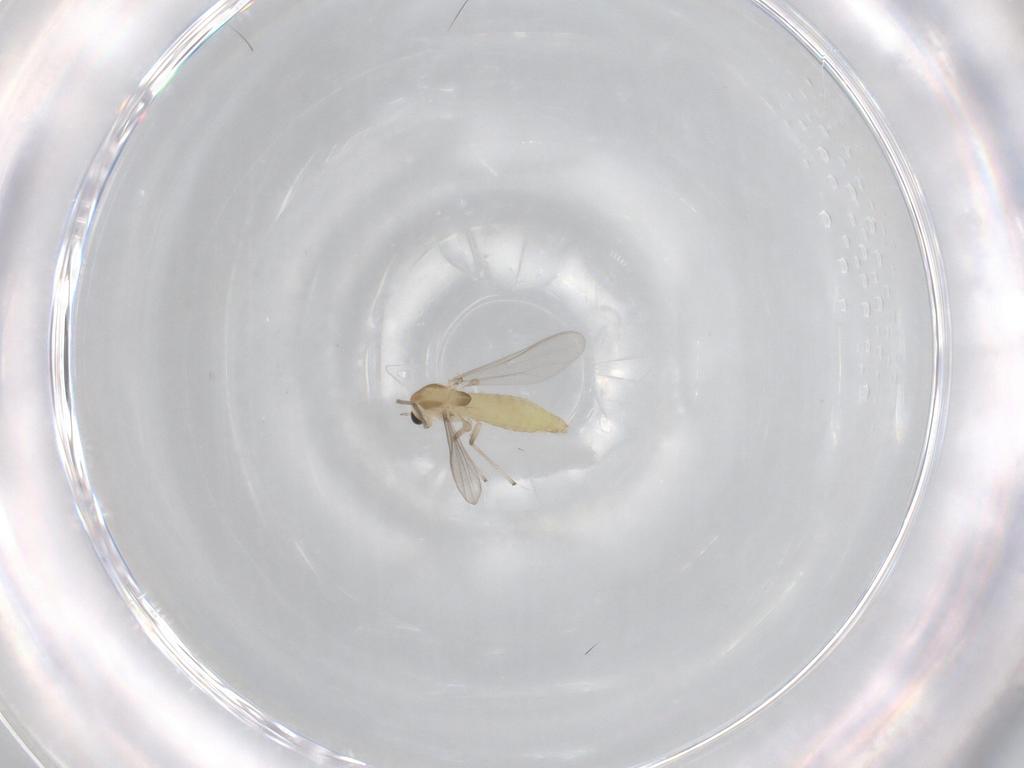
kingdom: Animalia
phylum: Arthropoda
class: Insecta
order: Diptera
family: Chironomidae
